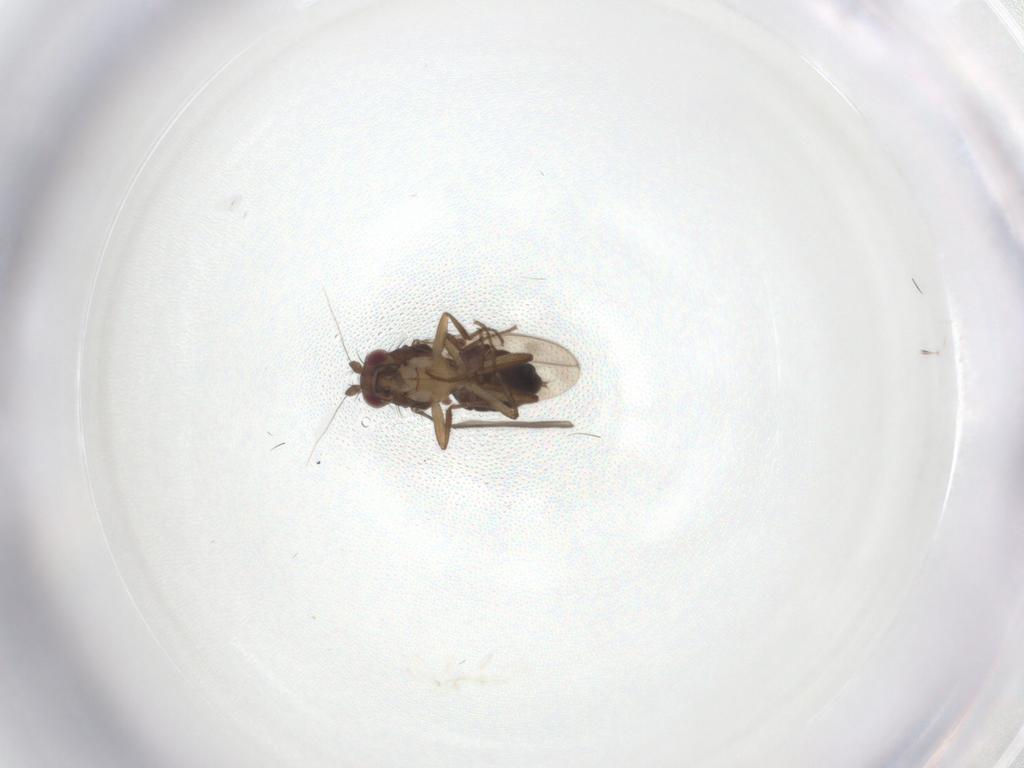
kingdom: Animalia
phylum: Arthropoda
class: Insecta
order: Diptera
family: Sphaeroceridae
